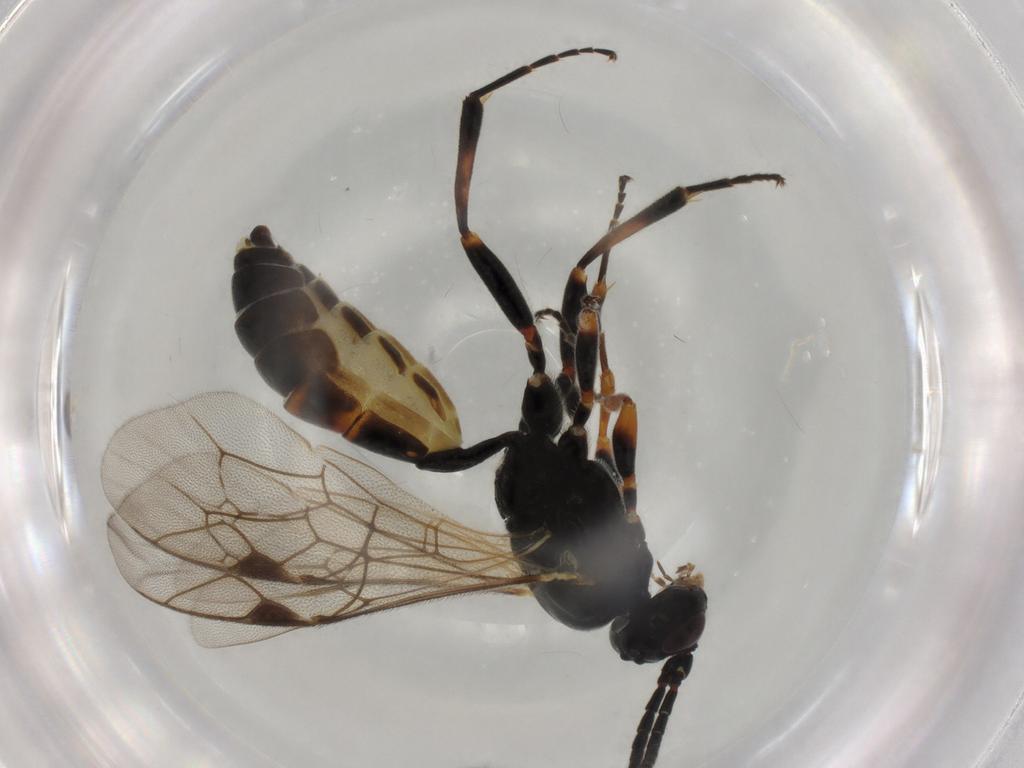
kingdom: Animalia
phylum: Arthropoda
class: Insecta
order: Hymenoptera
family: Ichneumonidae
